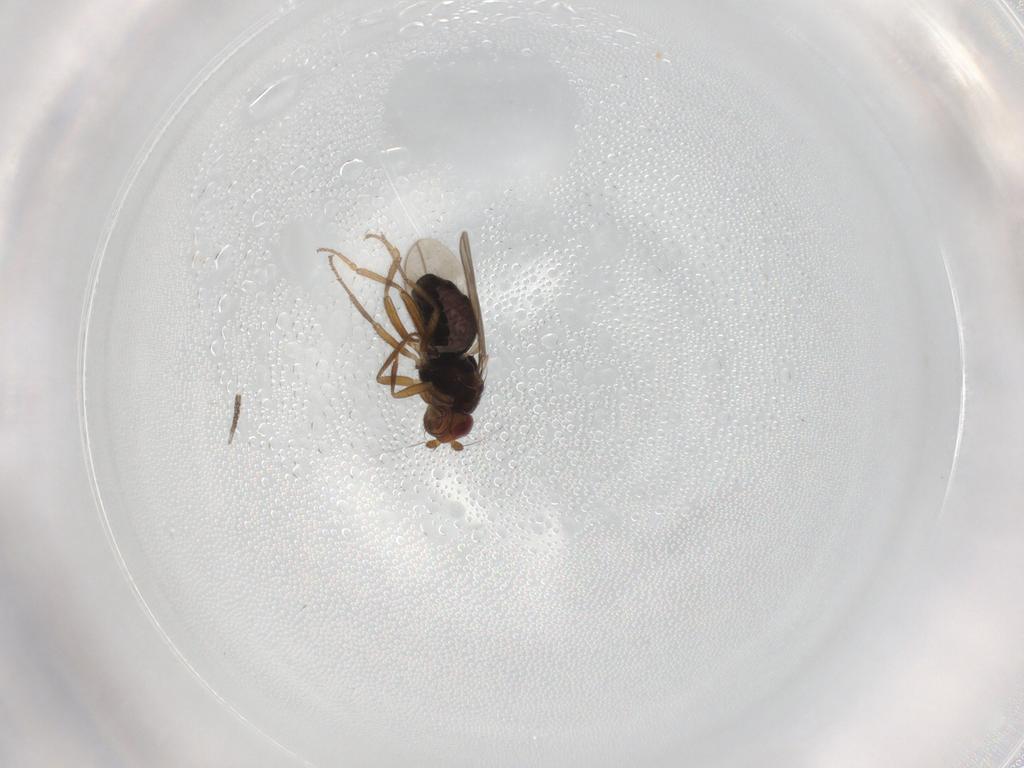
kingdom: Animalia
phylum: Arthropoda
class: Insecta
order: Diptera
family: Sphaeroceridae
